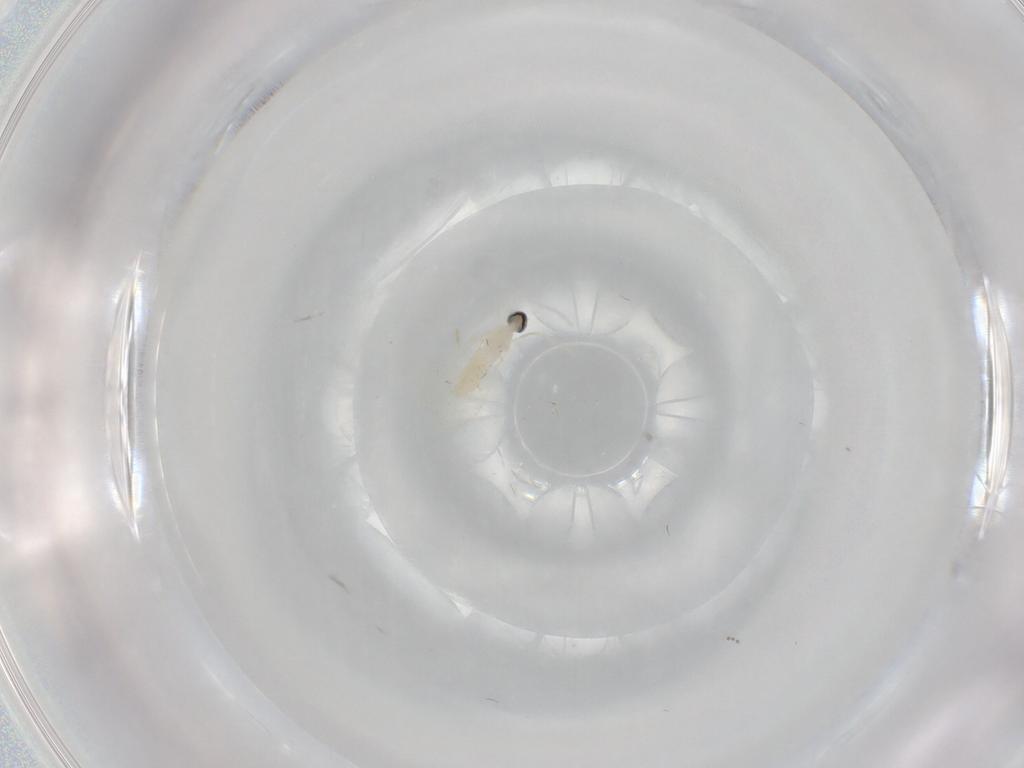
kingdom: Animalia
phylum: Arthropoda
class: Insecta
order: Diptera
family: Cecidomyiidae
